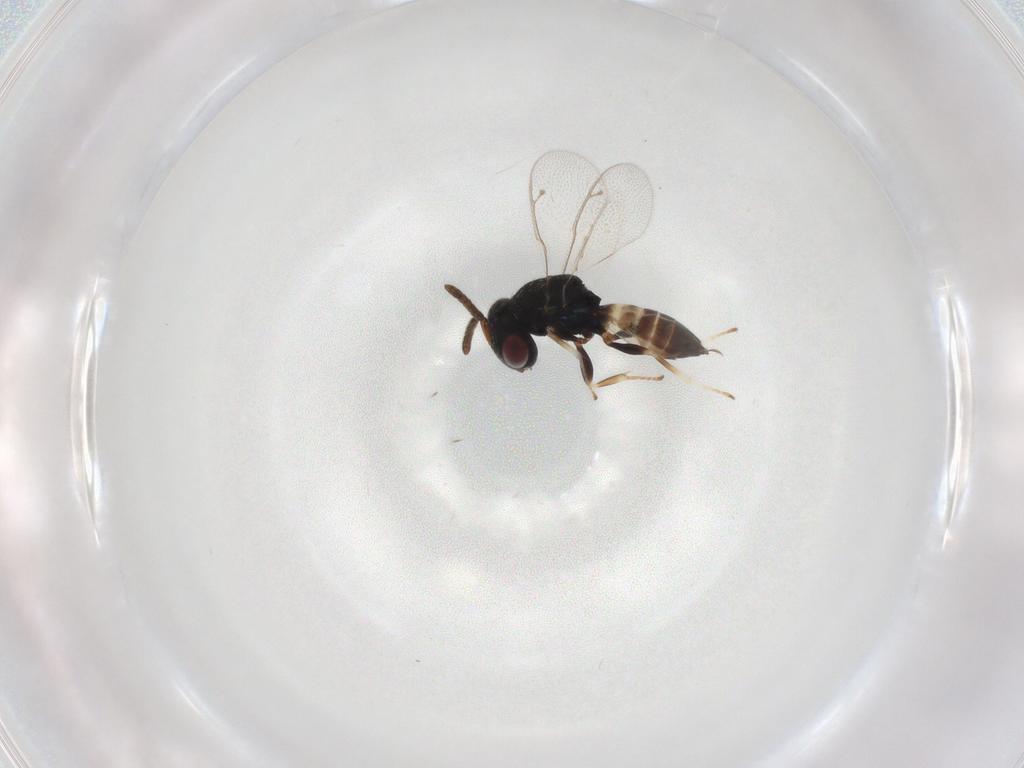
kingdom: Animalia
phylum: Arthropoda
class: Insecta
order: Hymenoptera
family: Pteromalidae
